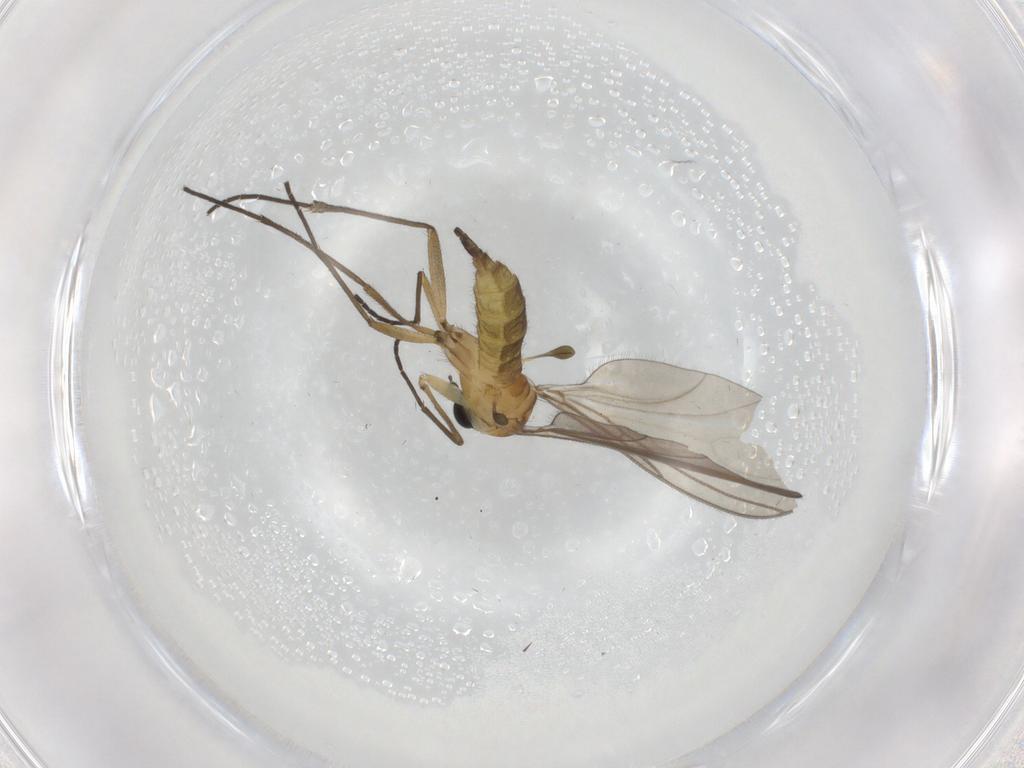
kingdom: Animalia
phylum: Arthropoda
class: Insecta
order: Diptera
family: Sciaridae
